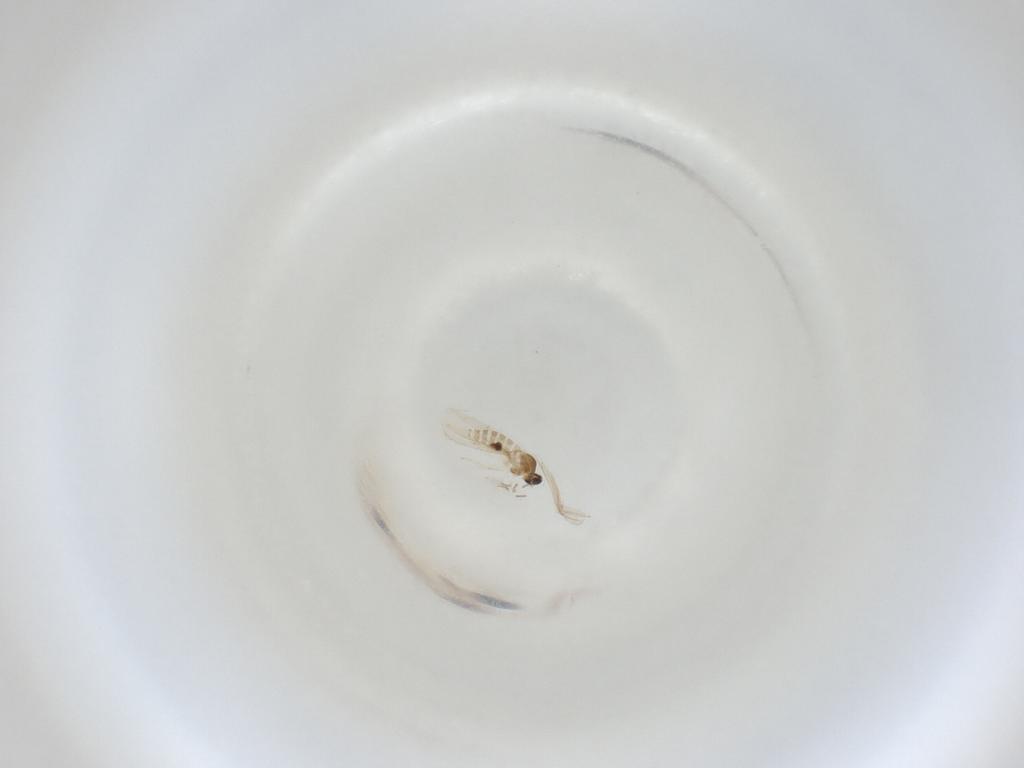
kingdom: Animalia
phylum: Arthropoda
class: Insecta
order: Diptera
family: Cecidomyiidae
